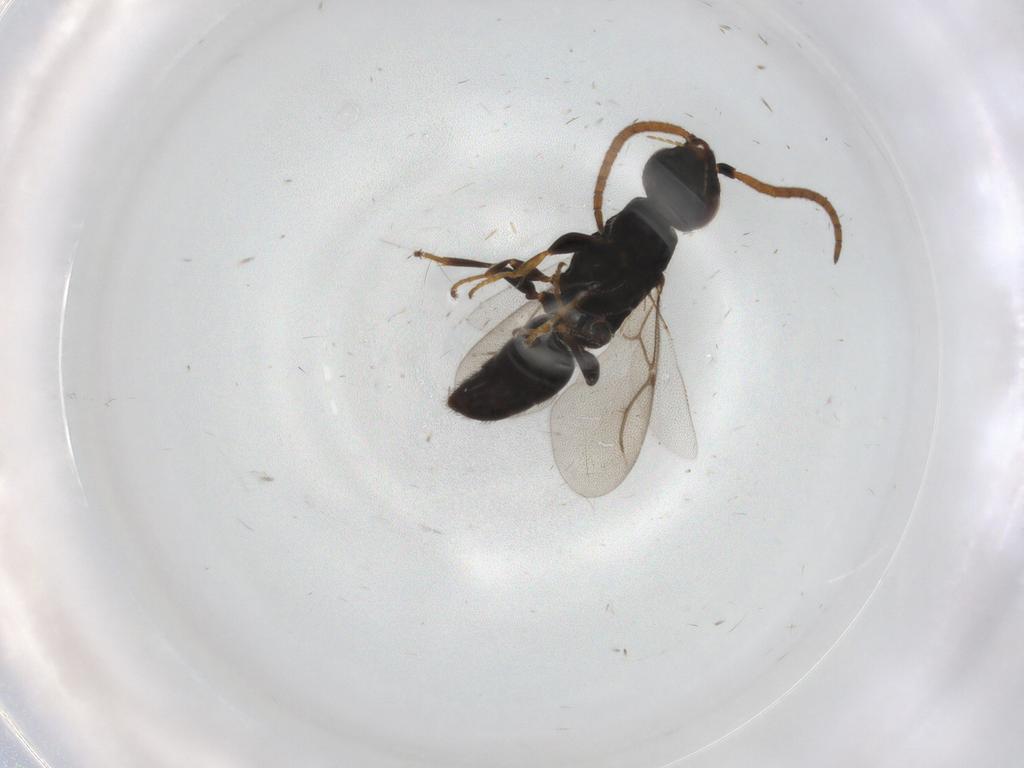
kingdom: Animalia
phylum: Arthropoda
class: Insecta
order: Hymenoptera
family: Bethylidae
